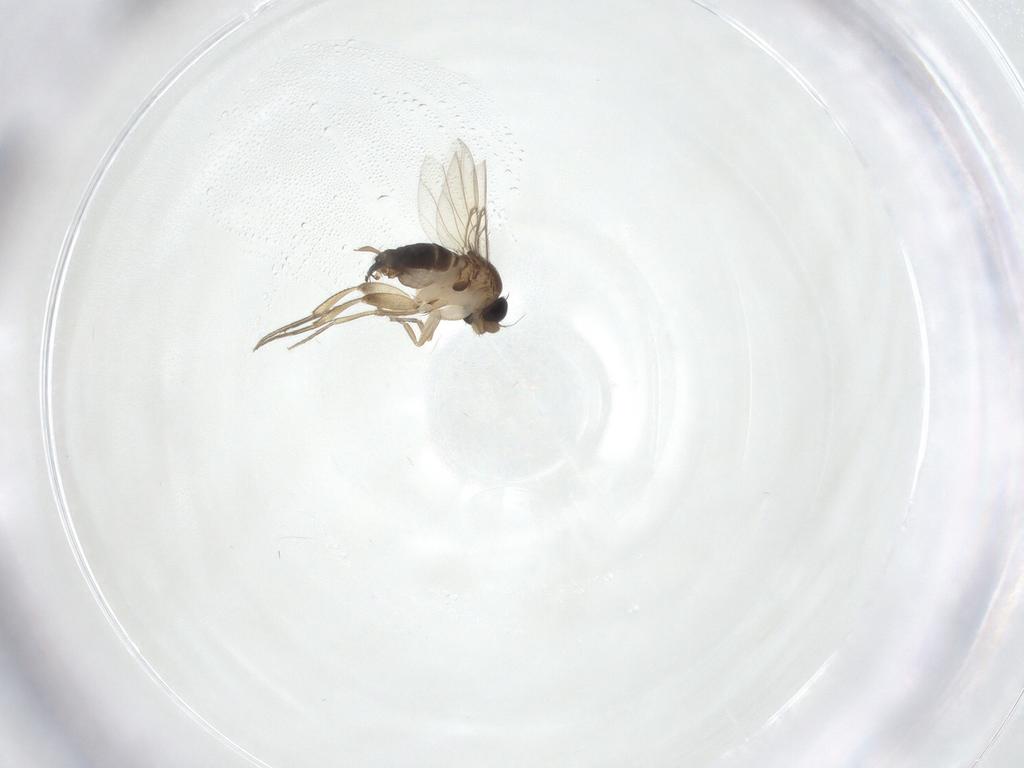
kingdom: Animalia
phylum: Arthropoda
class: Insecta
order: Diptera
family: Ceratopogonidae
